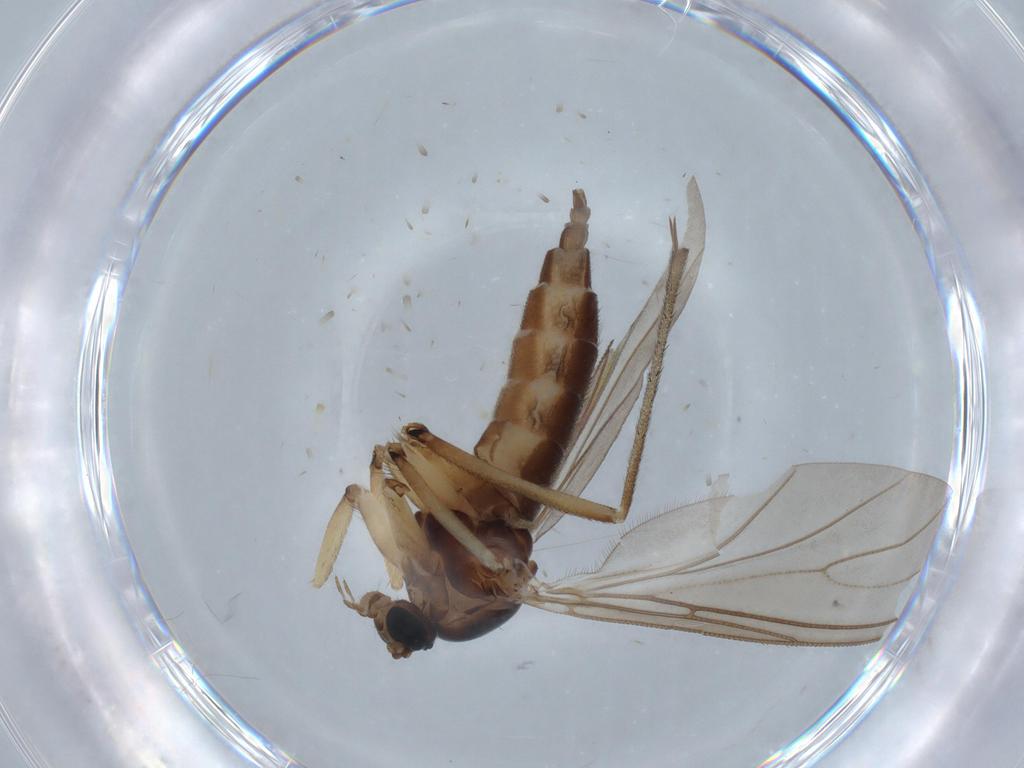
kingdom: Animalia
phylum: Arthropoda
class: Insecta
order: Diptera
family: Sciaridae
